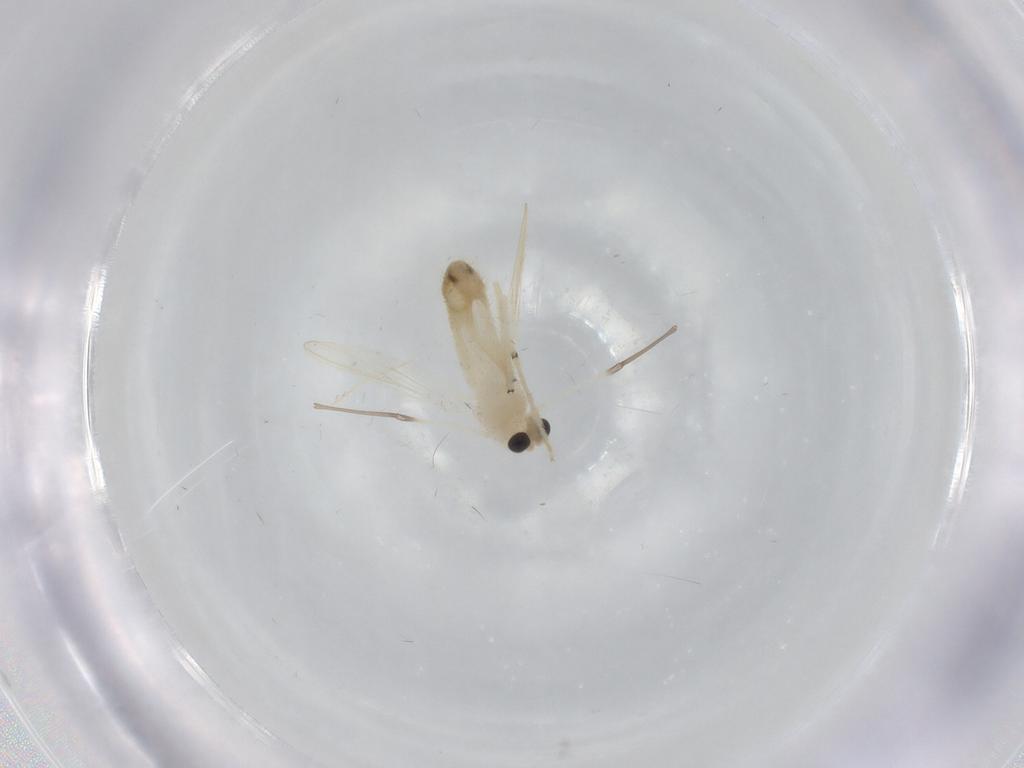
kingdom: Animalia
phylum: Arthropoda
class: Insecta
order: Diptera
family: Chironomidae
